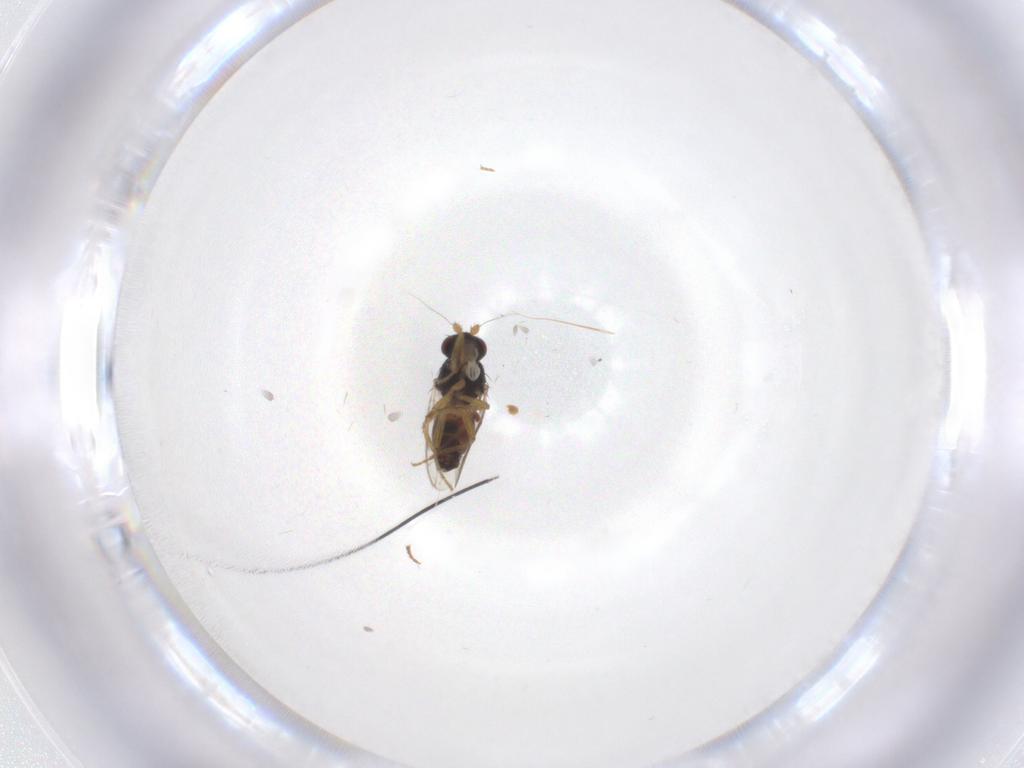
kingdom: Animalia
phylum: Arthropoda
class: Insecta
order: Diptera
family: Sphaeroceridae
